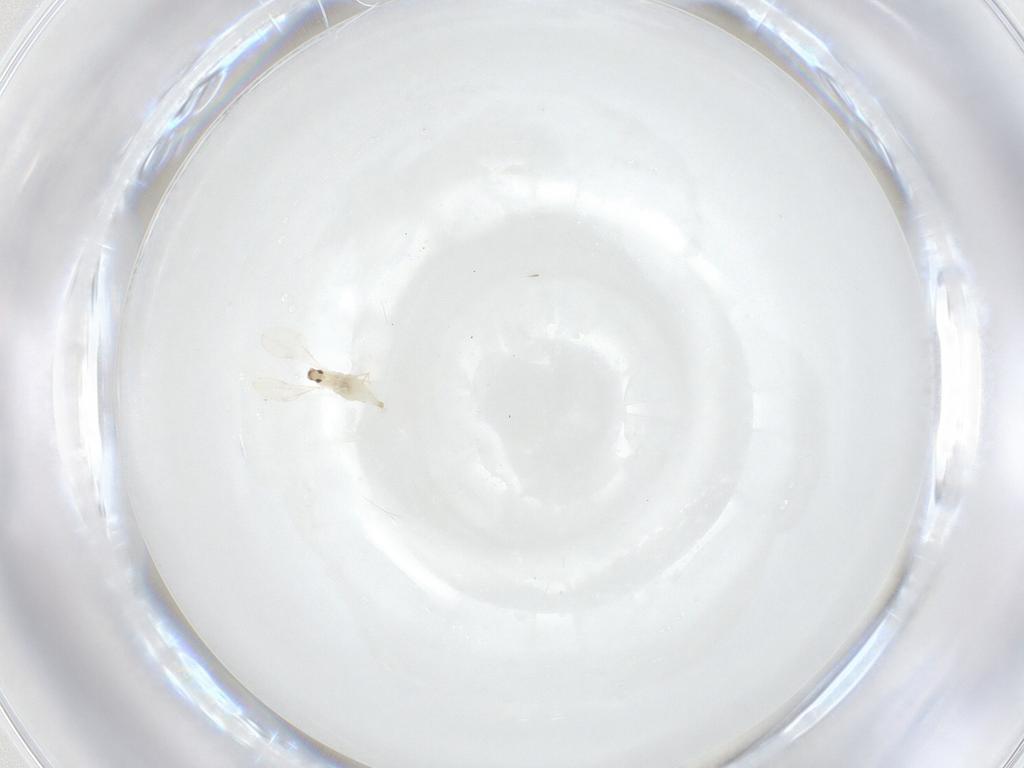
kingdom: Animalia
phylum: Arthropoda
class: Insecta
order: Diptera
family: Cecidomyiidae
